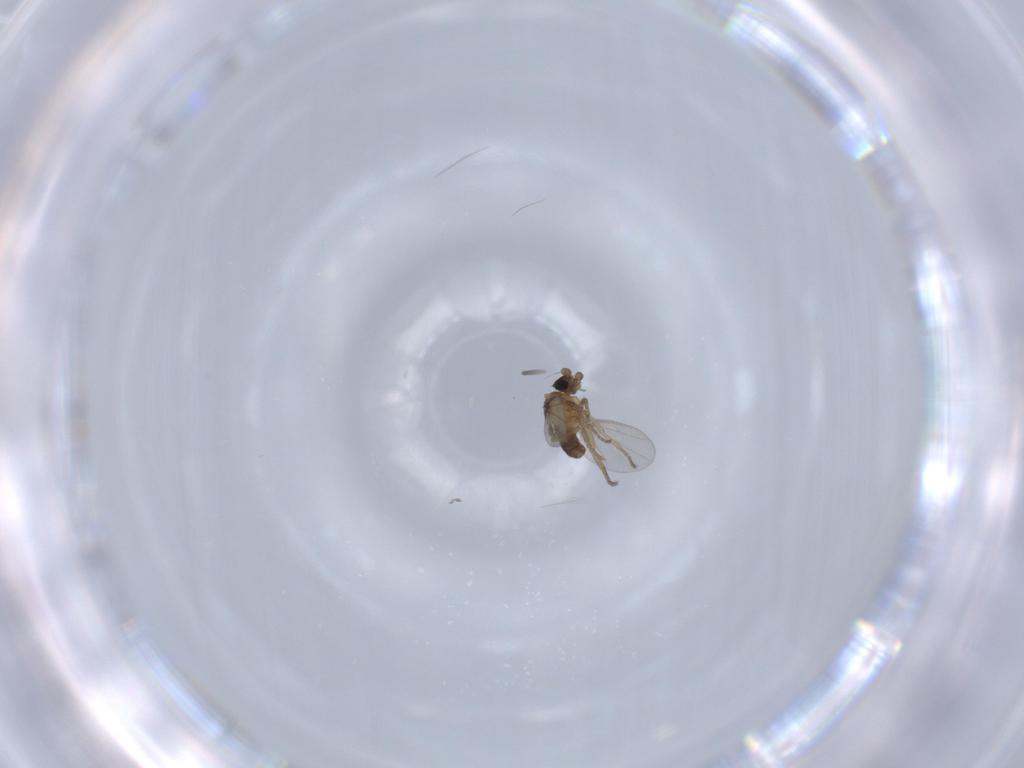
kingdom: Animalia
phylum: Arthropoda
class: Insecta
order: Diptera
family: Phoridae
